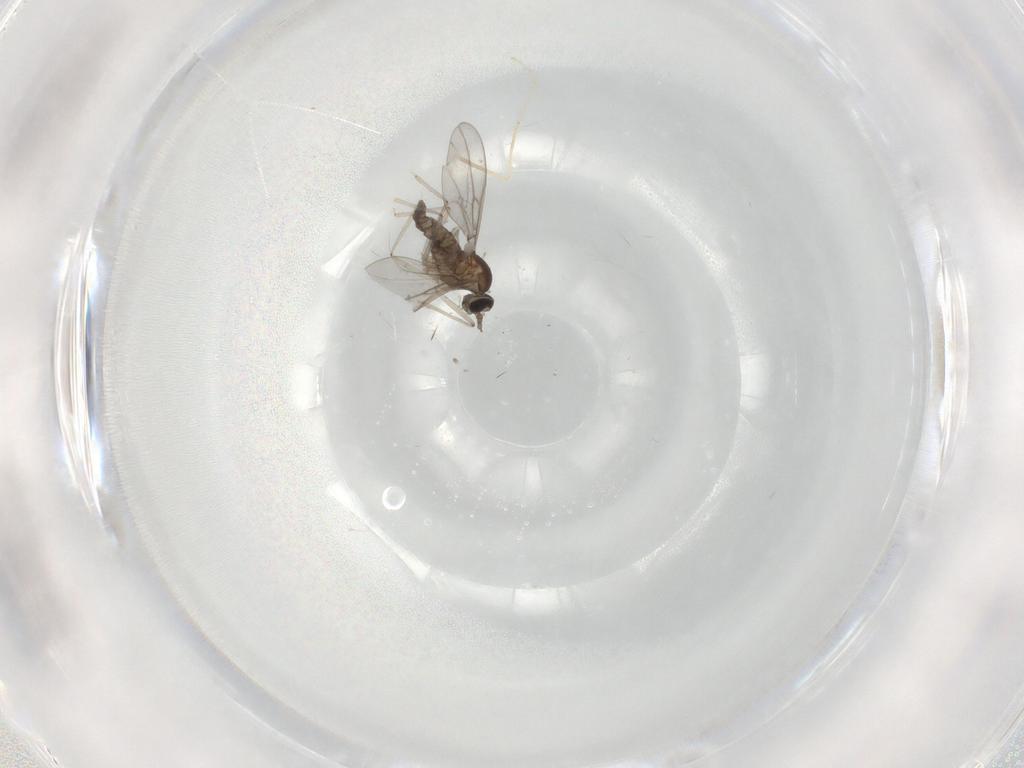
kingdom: Animalia
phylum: Arthropoda
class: Insecta
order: Diptera
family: Cecidomyiidae
